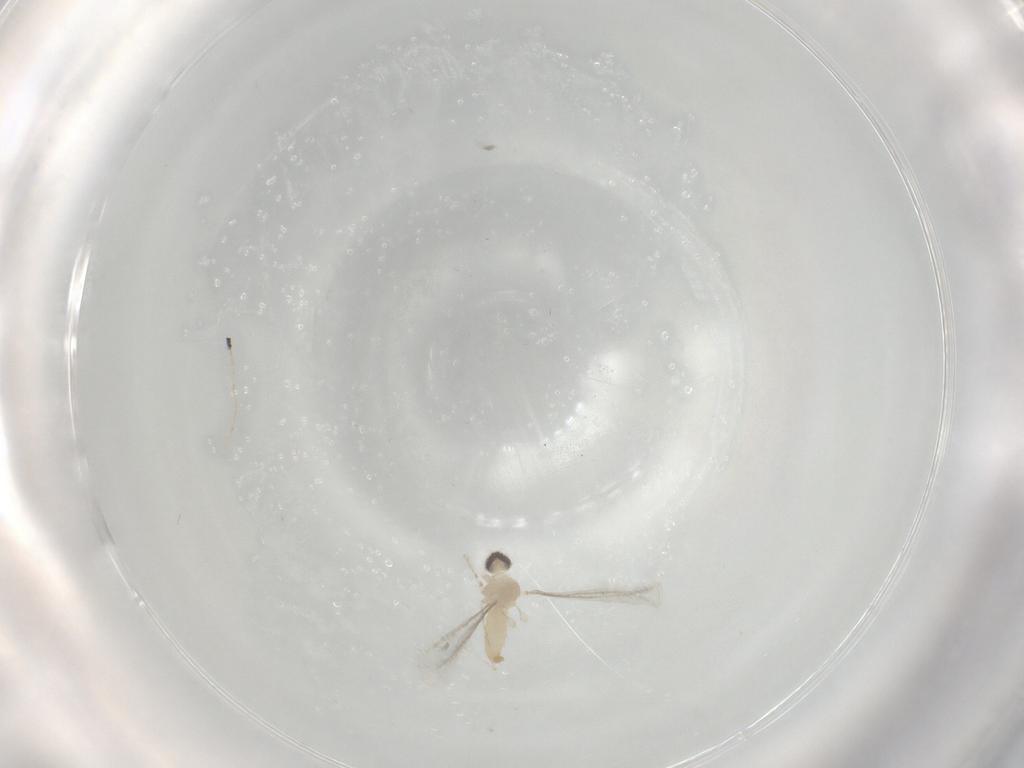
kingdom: Animalia
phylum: Arthropoda
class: Insecta
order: Diptera
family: Cecidomyiidae
